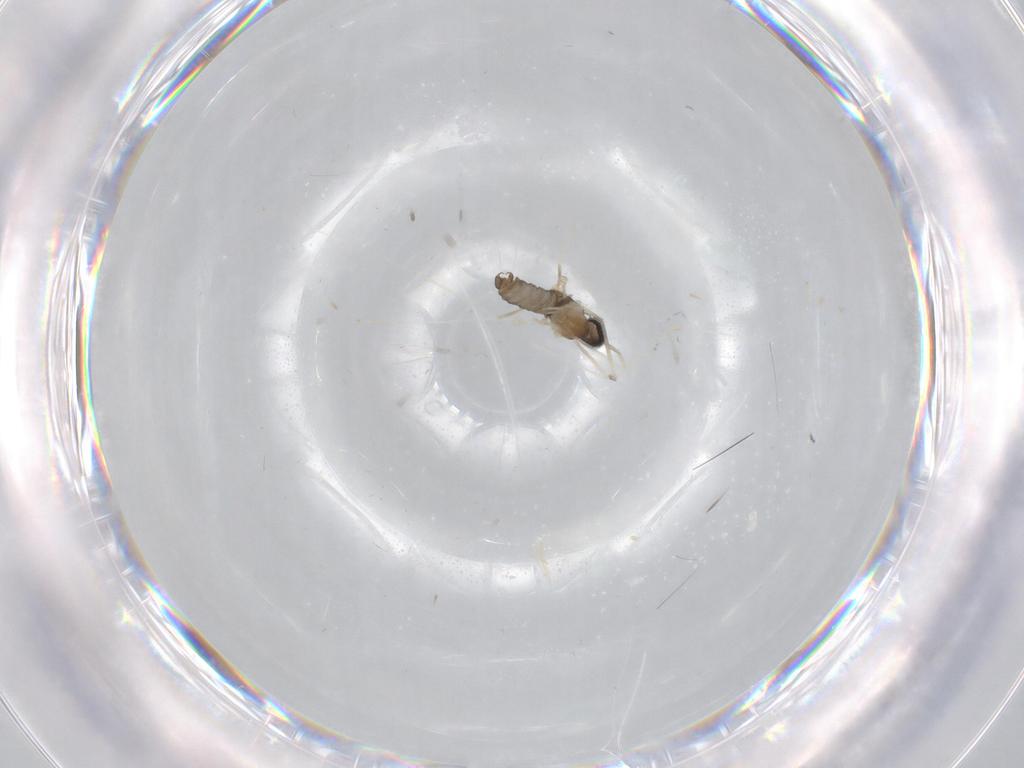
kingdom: Animalia
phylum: Arthropoda
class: Insecta
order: Diptera
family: Cecidomyiidae
